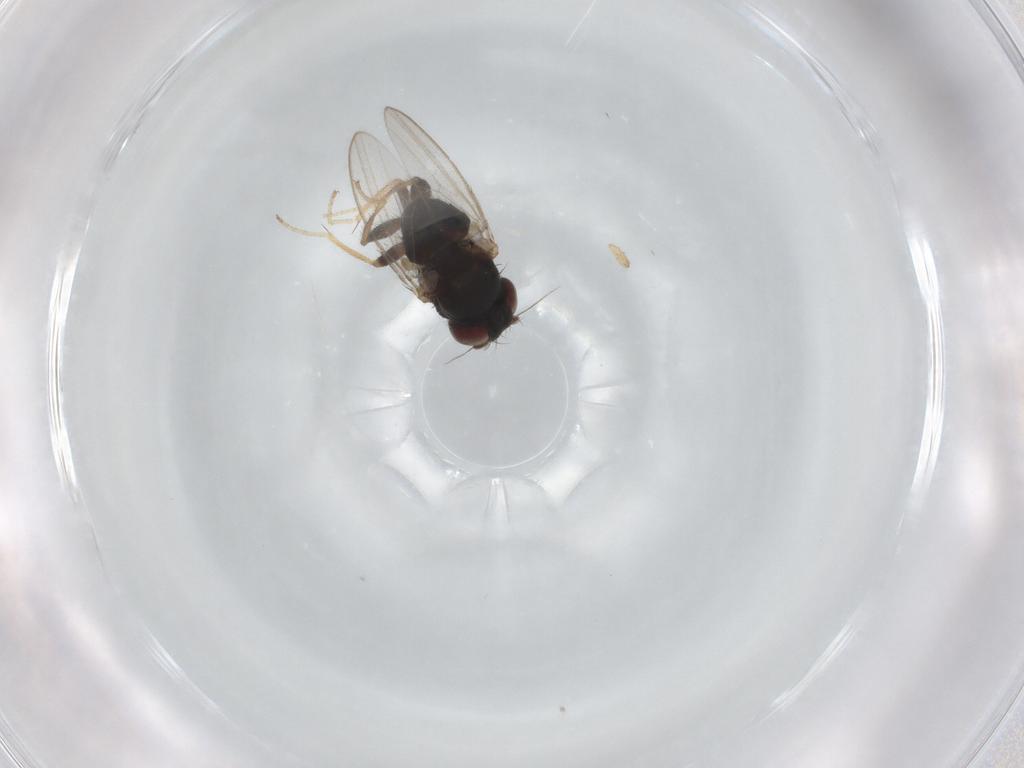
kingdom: Animalia
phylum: Arthropoda
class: Insecta
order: Diptera
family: Milichiidae
